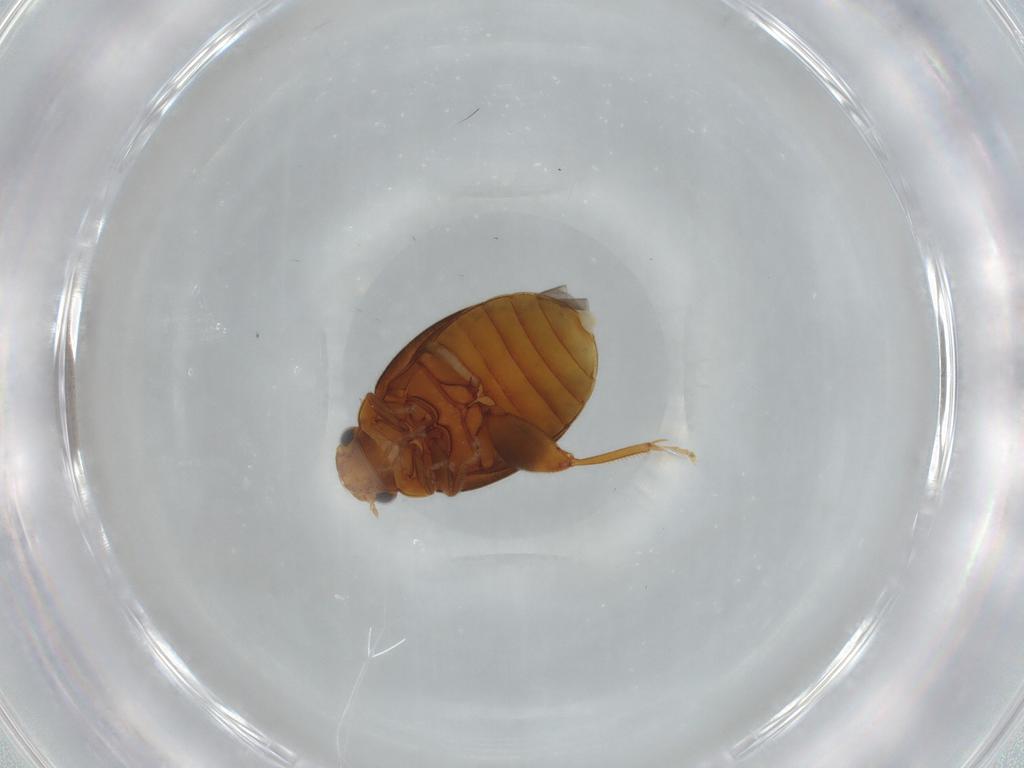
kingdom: Animalia
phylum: Arthropoda
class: Insecta
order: Coleoptera
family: Scirtidae
